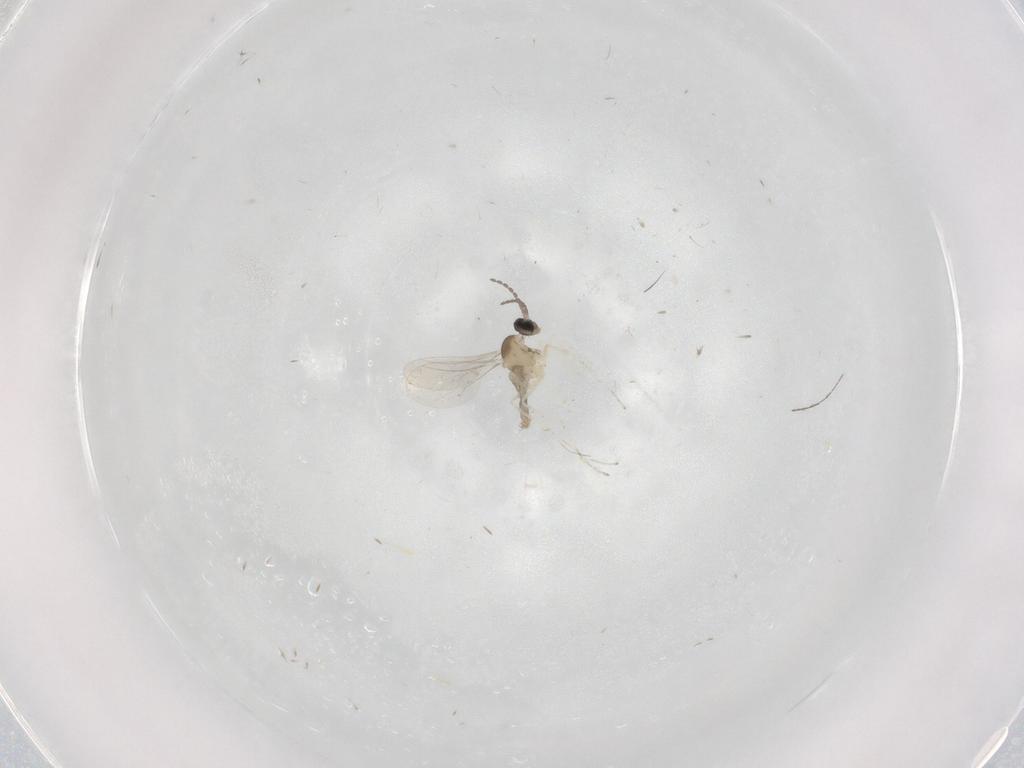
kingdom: Animalia
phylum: Arthropoda
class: Insecta
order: Diptera
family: Cecidomyiidae
